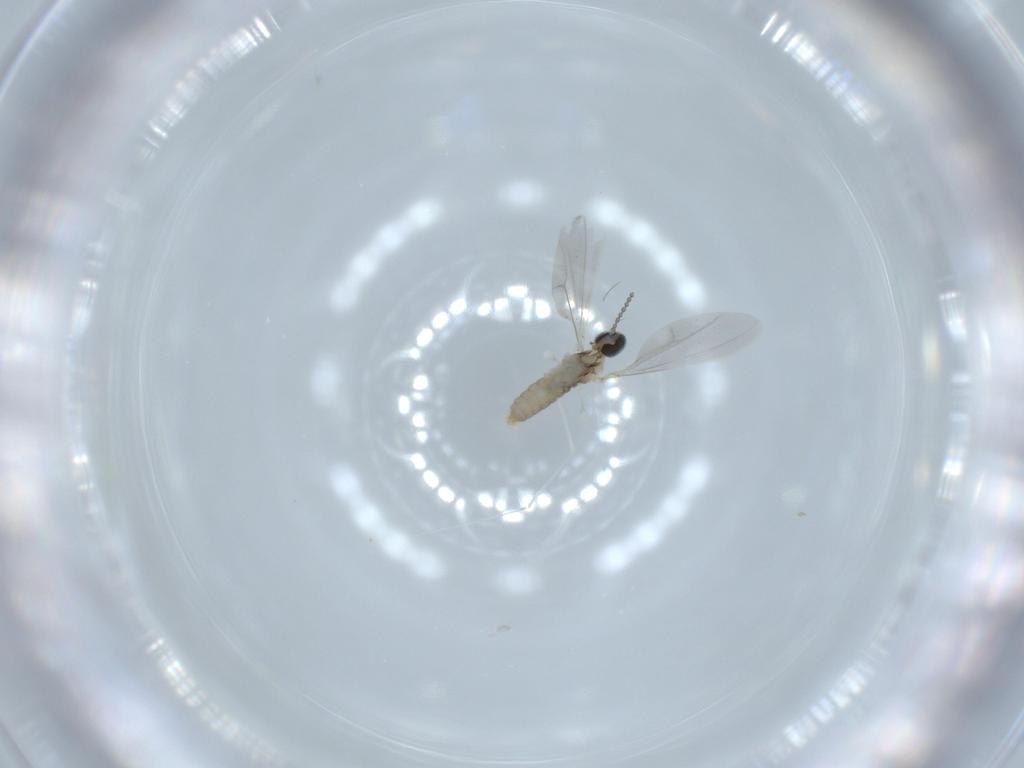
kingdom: Animalia
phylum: Arthropoda
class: Insecta
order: Diptera
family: Cecidomyiidae
